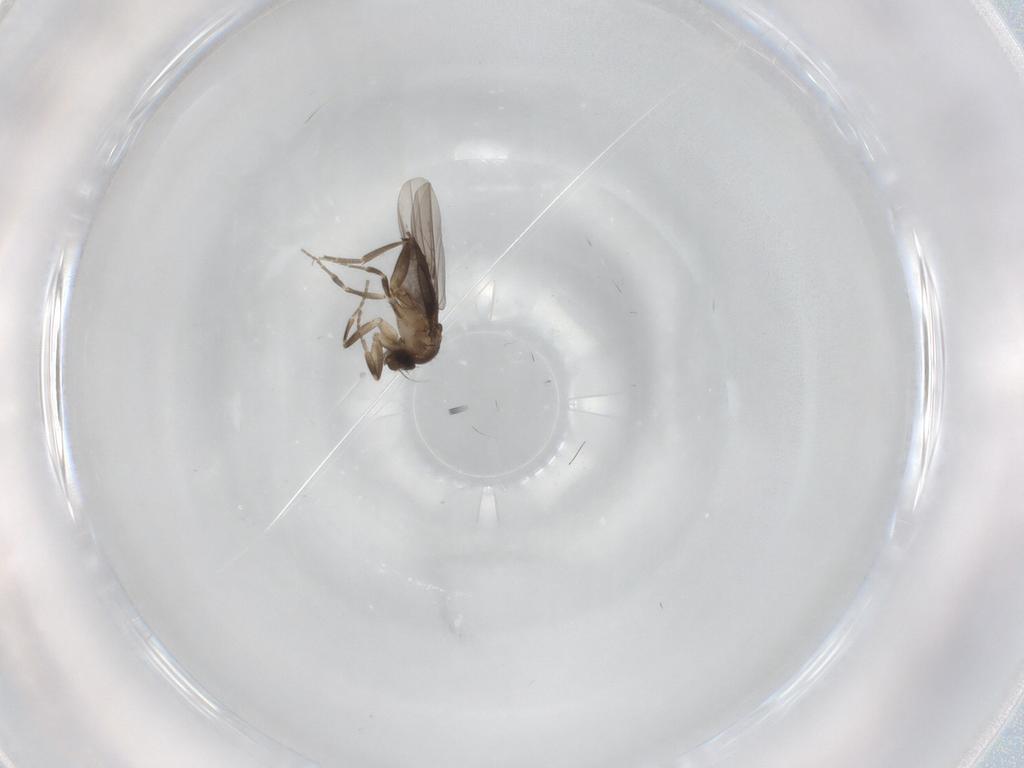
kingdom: Animalia
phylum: Arthropoda
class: Insecta
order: Diptera
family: Phoridae
